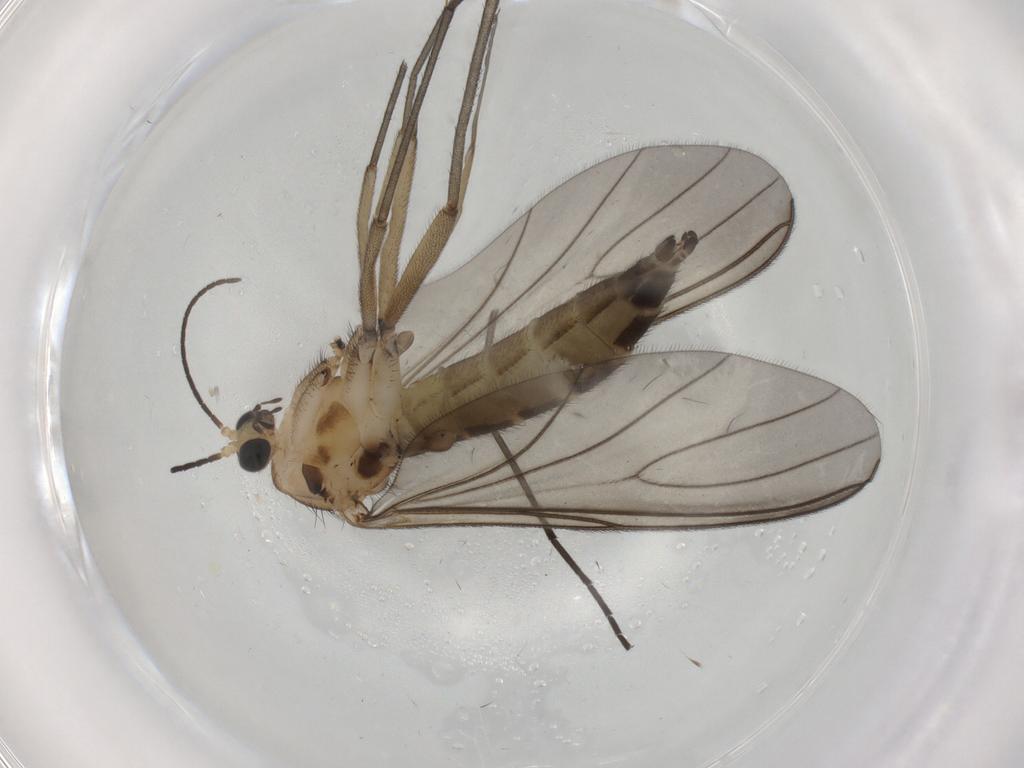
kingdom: Animalia
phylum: Arthropoda
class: Insecta
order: Diptera
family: Sciaridae
